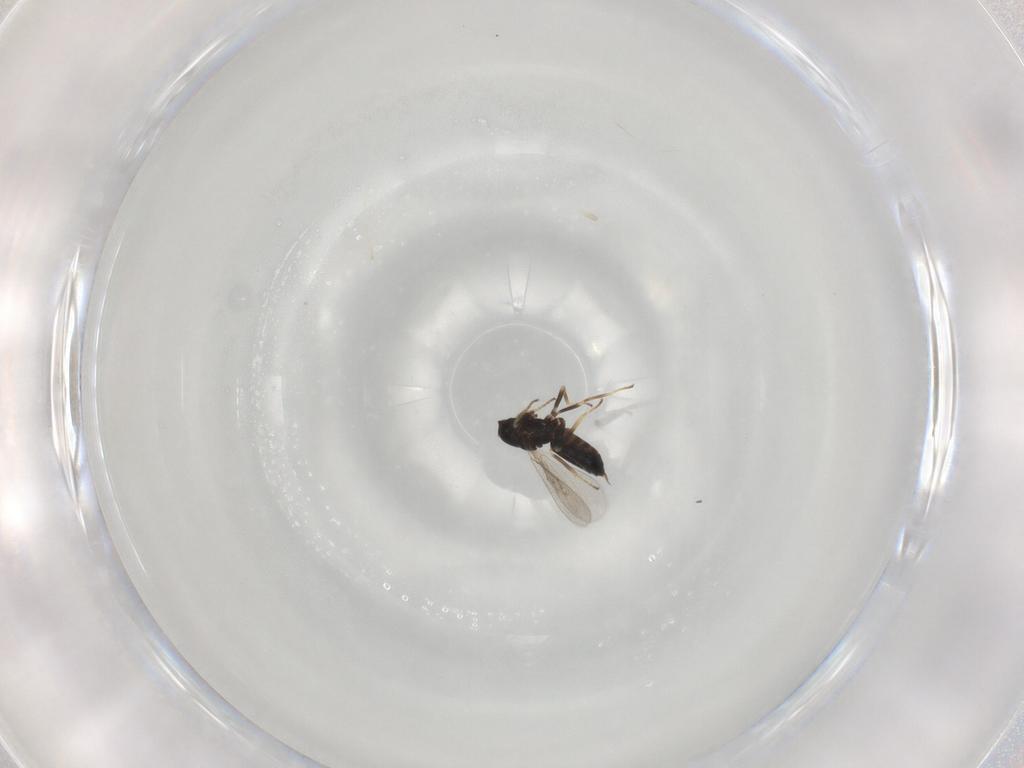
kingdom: Animalia
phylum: Arthropoda
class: Insecta
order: Hymenoptera
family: Eulophidae
